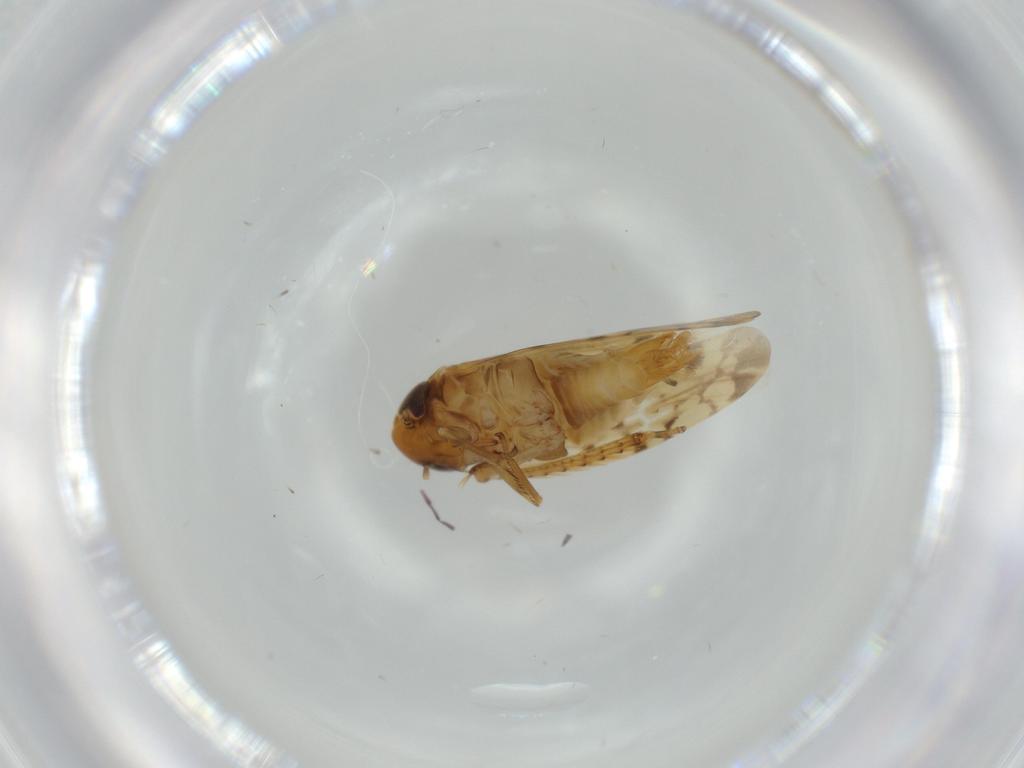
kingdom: Animalia
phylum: Arthropoda
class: Insecta
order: Hemiptera
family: Cicadellidae
